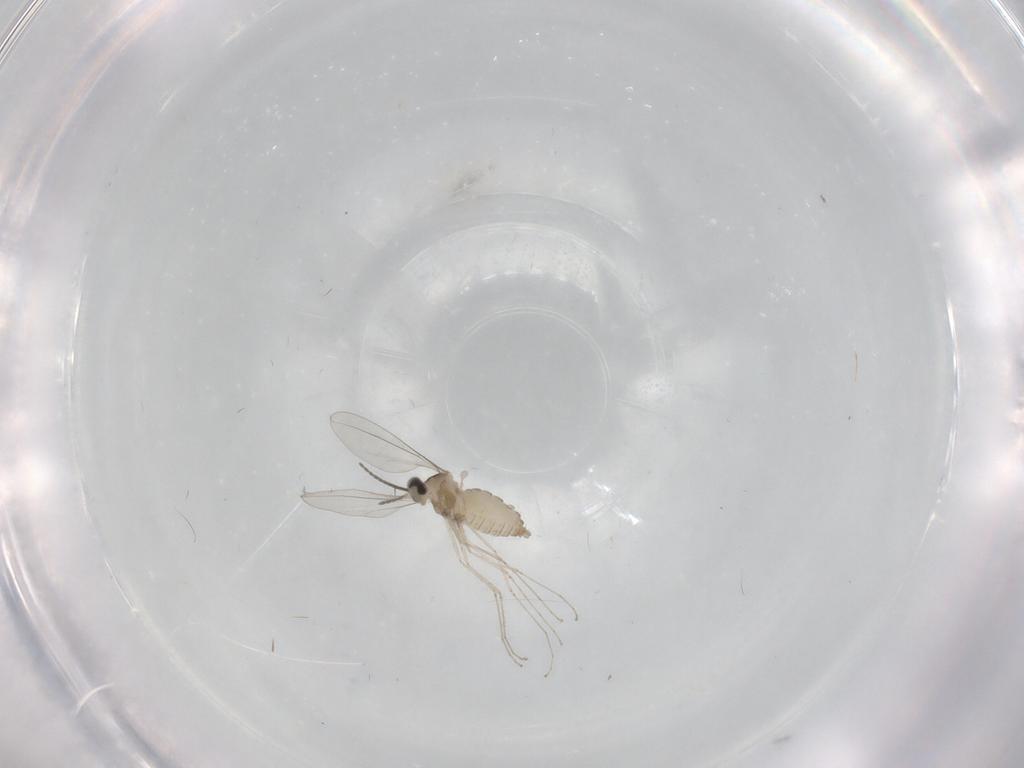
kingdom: Animalia
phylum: Arthropoda
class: Insecta
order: Diptera
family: Cecidomyiidae
